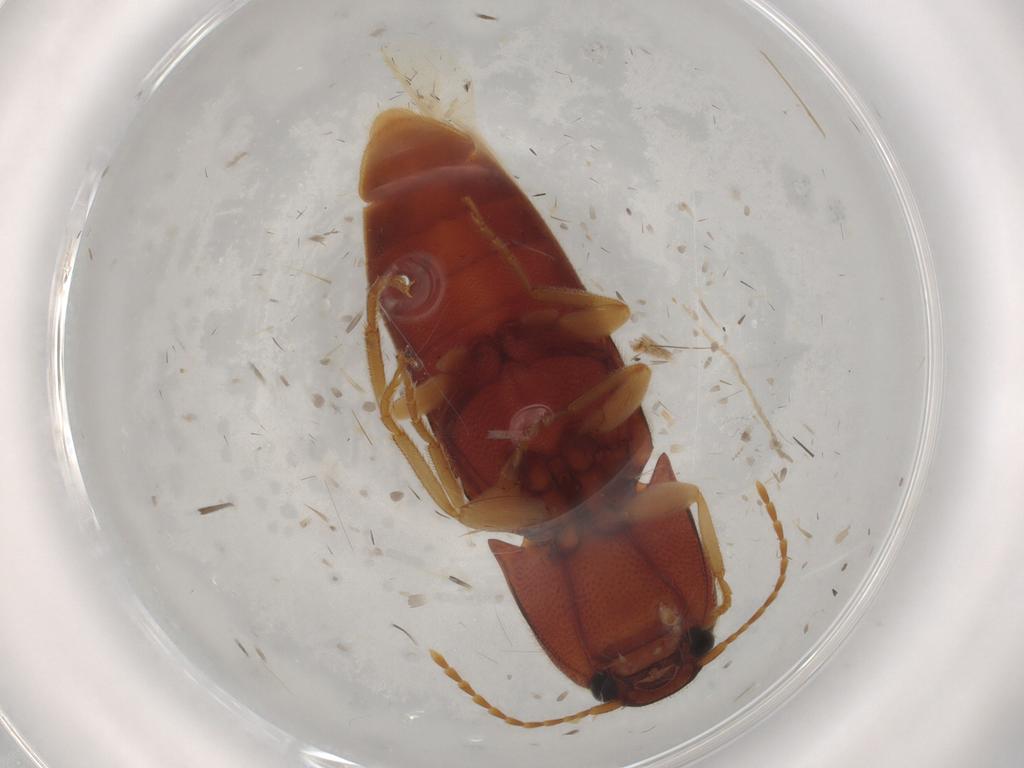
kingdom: Animalia
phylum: Arthropoda
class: Insecta
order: Coleoptera
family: Elateridae
